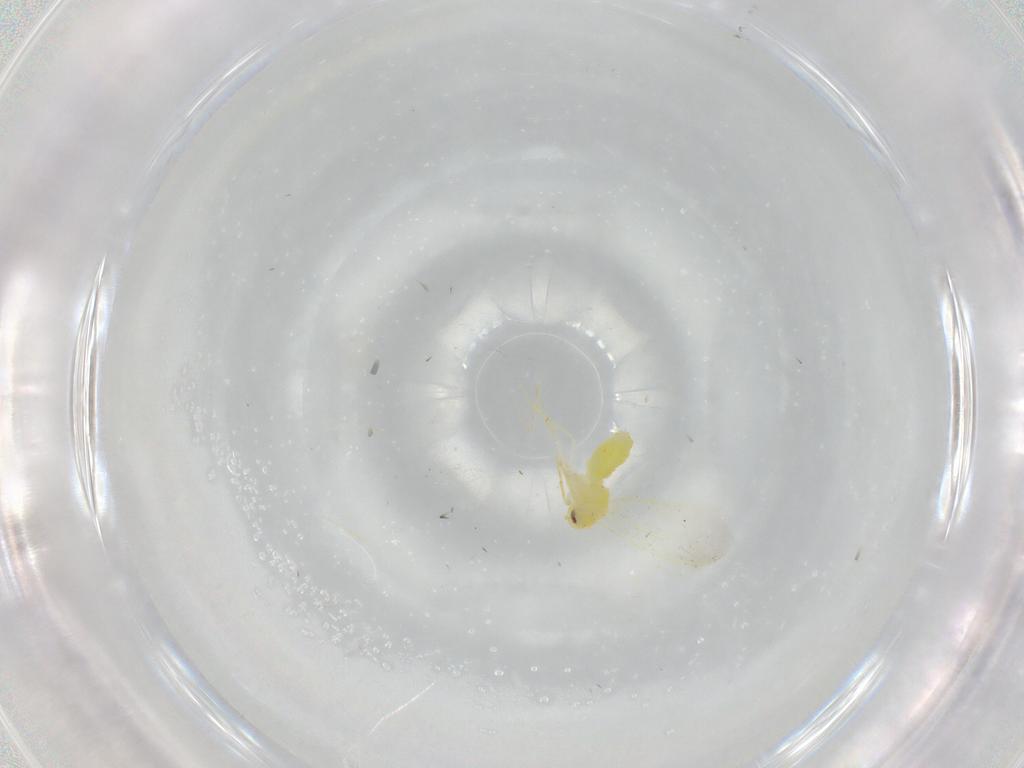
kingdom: Animalia
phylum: Arthropoda
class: Insecta
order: Hemiptera
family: Aleyrodidae
